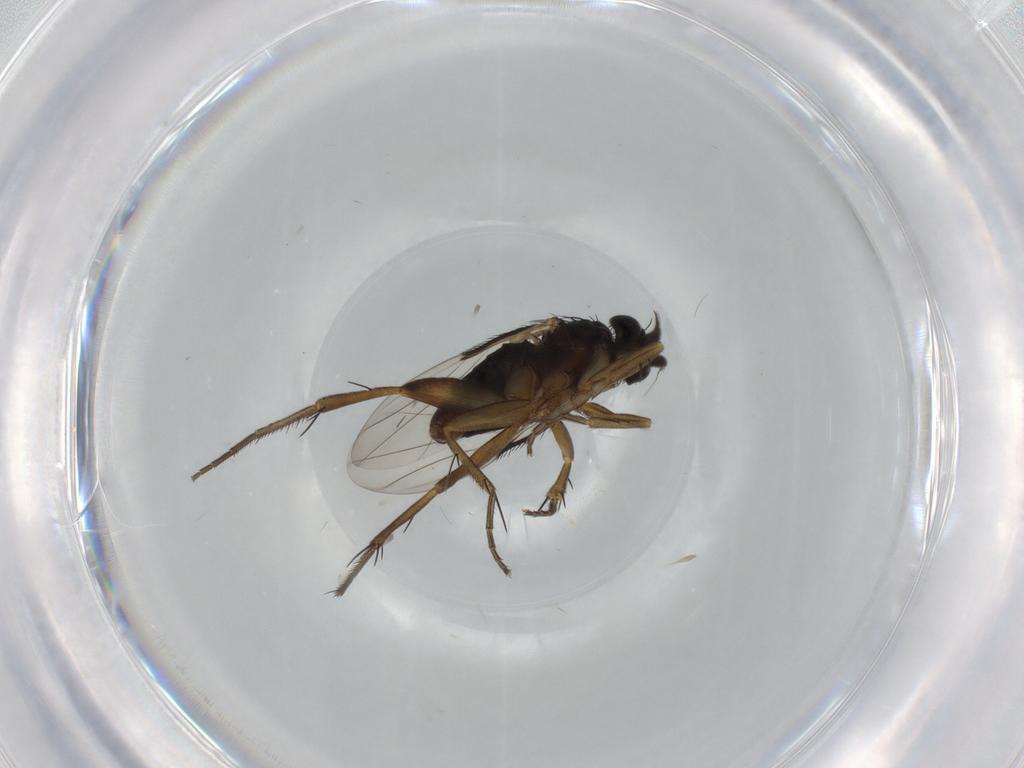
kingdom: Animalia
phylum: Arthropoda
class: Insecta
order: Diptera
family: Phoridae
